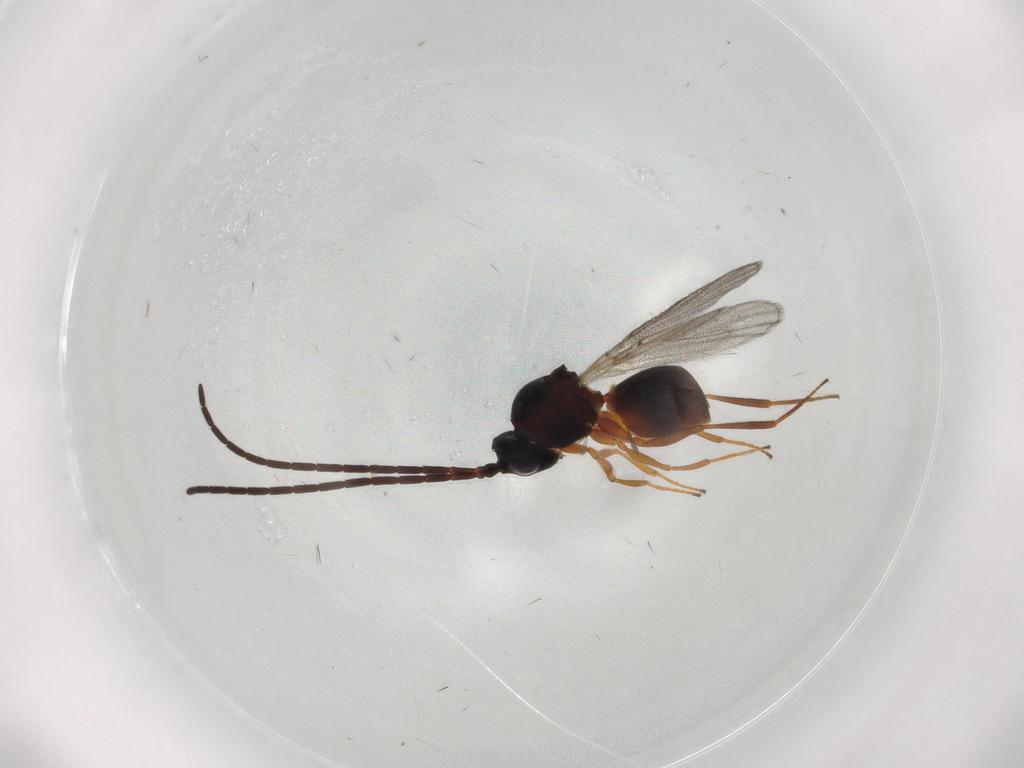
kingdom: Animalia
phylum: Arthropoda
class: Insecta
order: Hymenoptera
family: Figitidae
